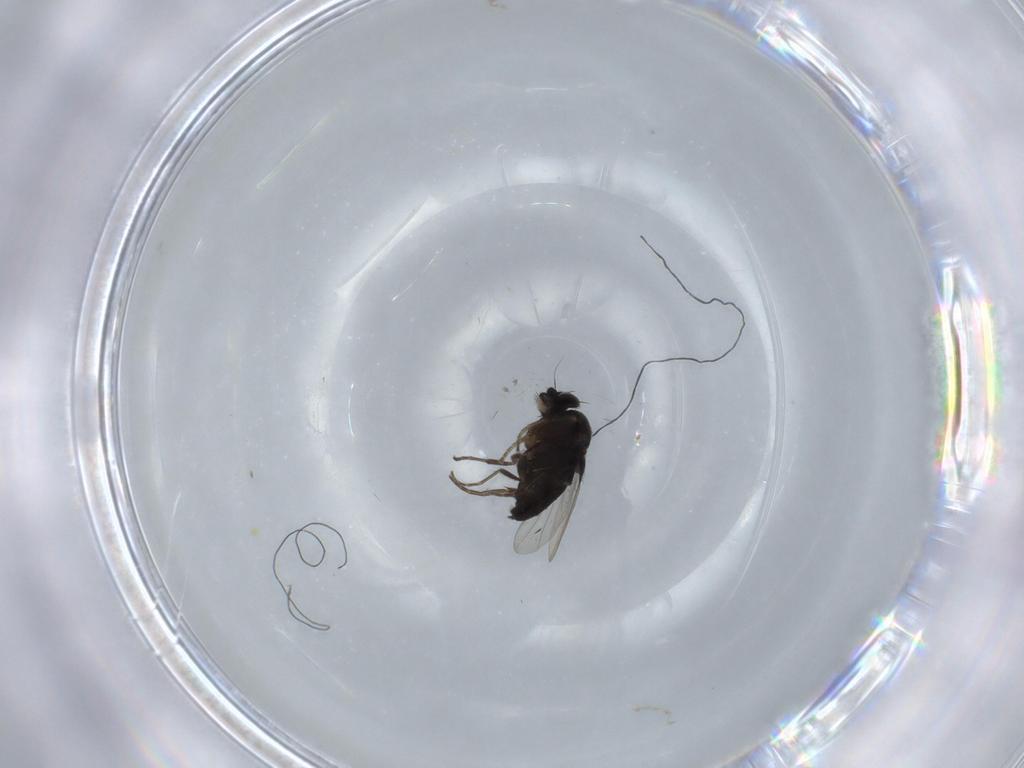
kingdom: Animalia
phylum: Arthropoda
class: Insecta
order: Diptera
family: Phoridae
